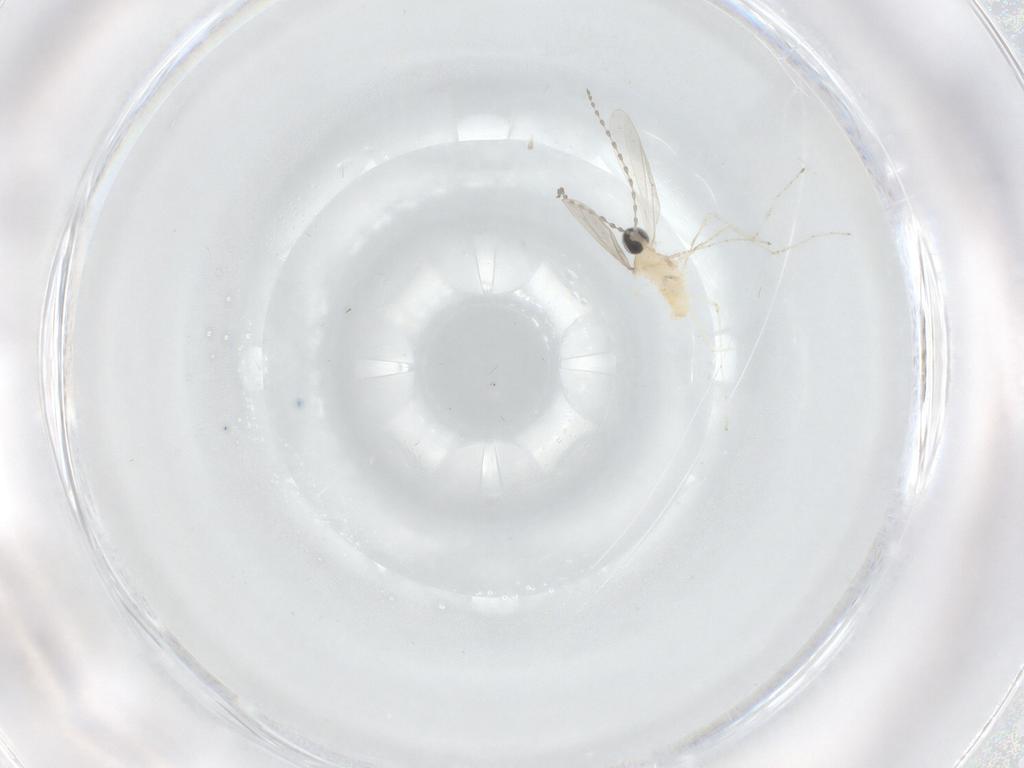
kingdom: Animalia
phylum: Arthropoda
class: Insecta
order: Diptera
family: Cecidomyiidae
